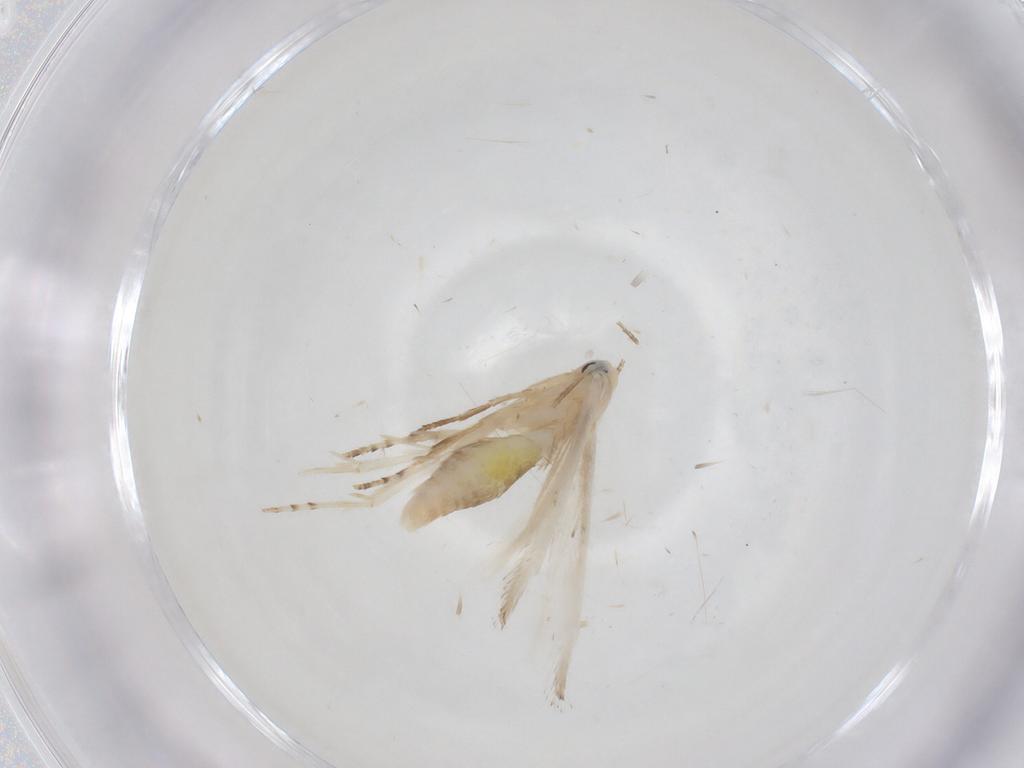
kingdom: Animalia
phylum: Arthropoda
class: Insecta
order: Lepidoptera
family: Lyonetiidae
